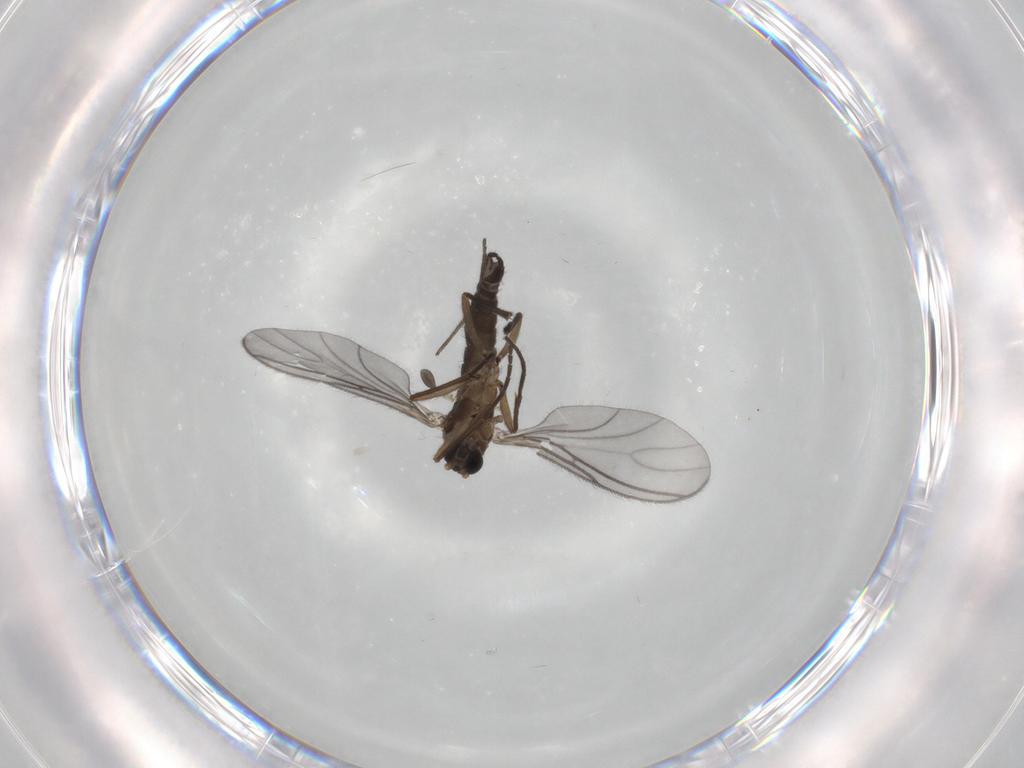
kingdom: Animalia
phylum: Arthropoda
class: Insecta
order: Diptera
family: Sciaridae
